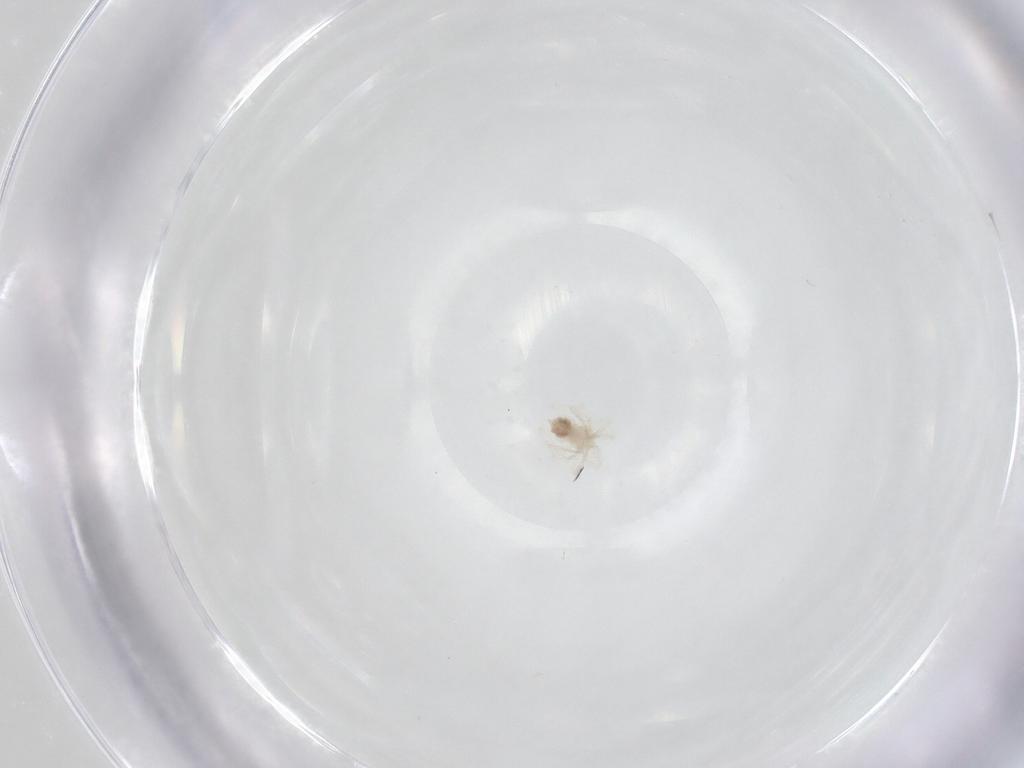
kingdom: Animalia
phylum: Arthropoda
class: Arachnida
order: Trombidiformes
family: Anystidae
